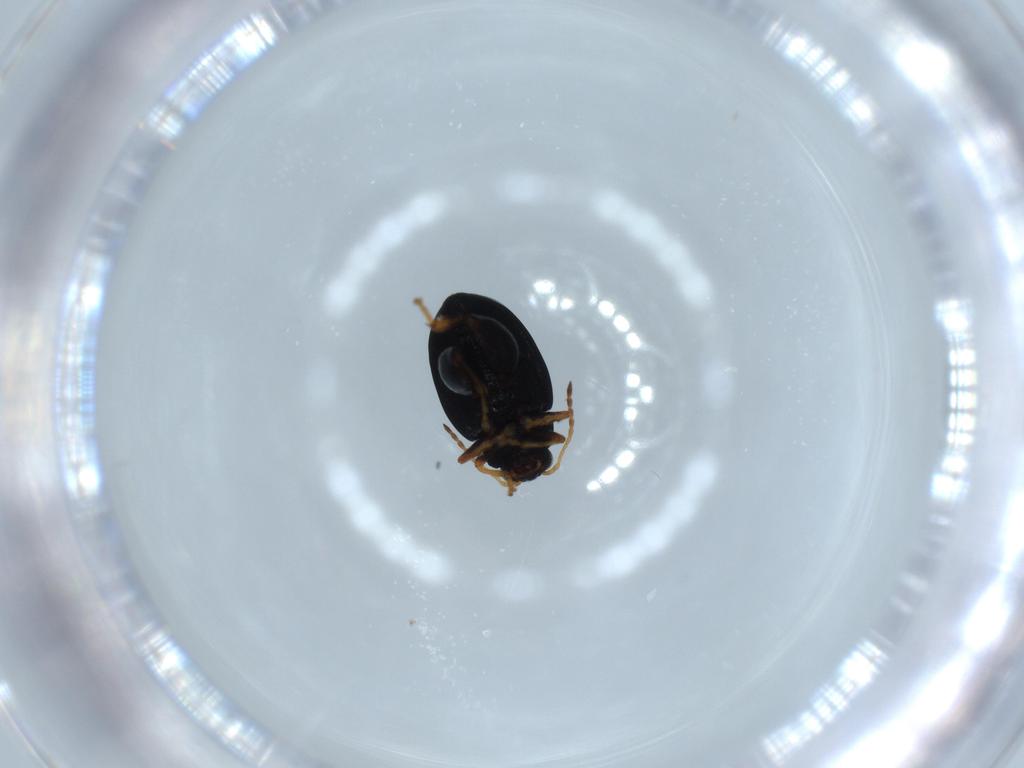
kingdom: Animalia
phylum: Arthropoda
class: Insecta
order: Coleoptera
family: Chrysomelidae
